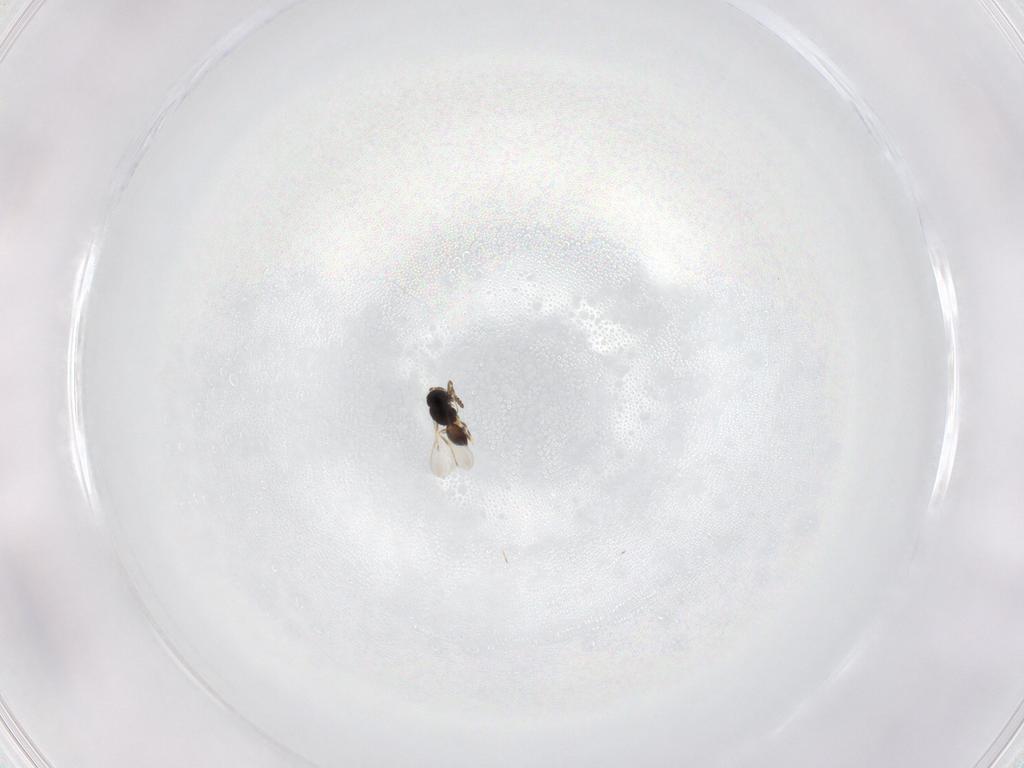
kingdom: Animalia
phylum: Arthropoda
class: Insecta
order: Hymenoptera
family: Scelionidae
